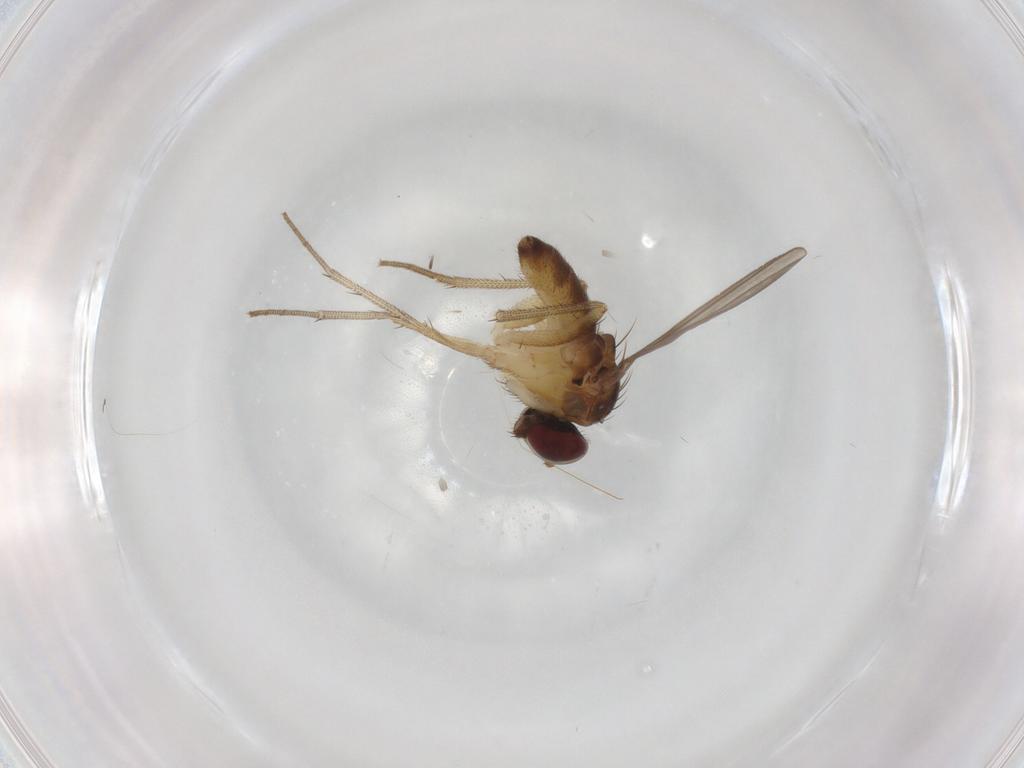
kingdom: Animalia
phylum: Arthropoda
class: Insecta
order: Diptera
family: Dolichopodidae
